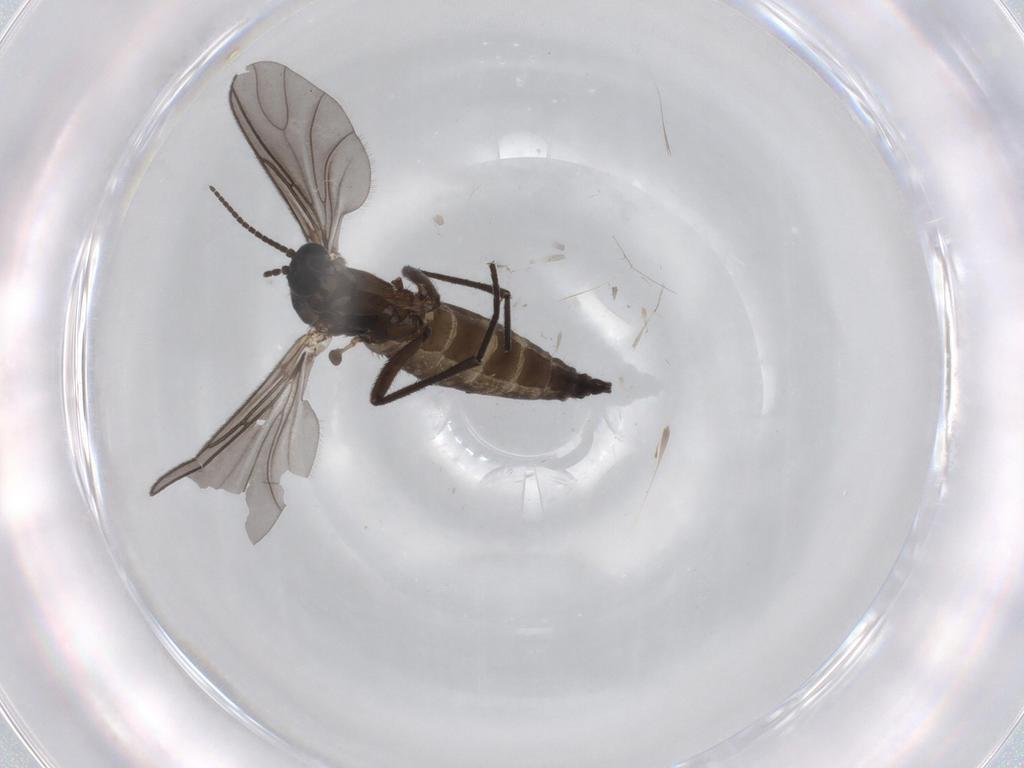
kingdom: Animalia
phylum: Arthropoda
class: Insecta
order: Diptera
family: Sciaridae
